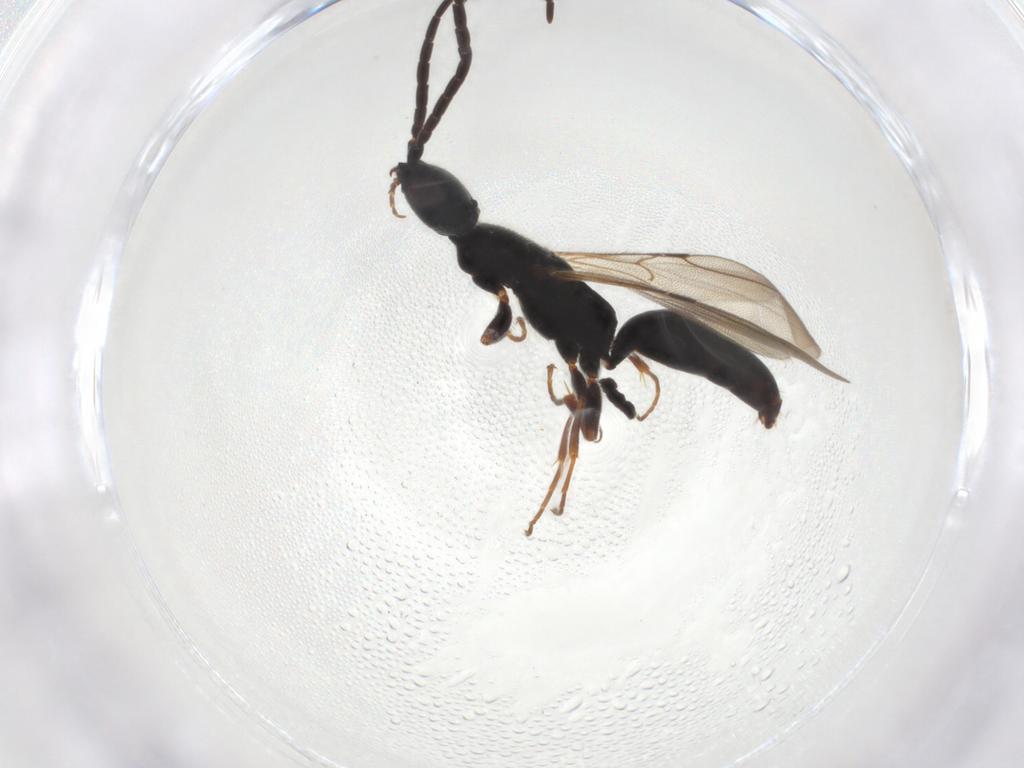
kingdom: Animalia
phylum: Arthropoda
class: Insecta
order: Hymenoptera
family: Bethylidae
